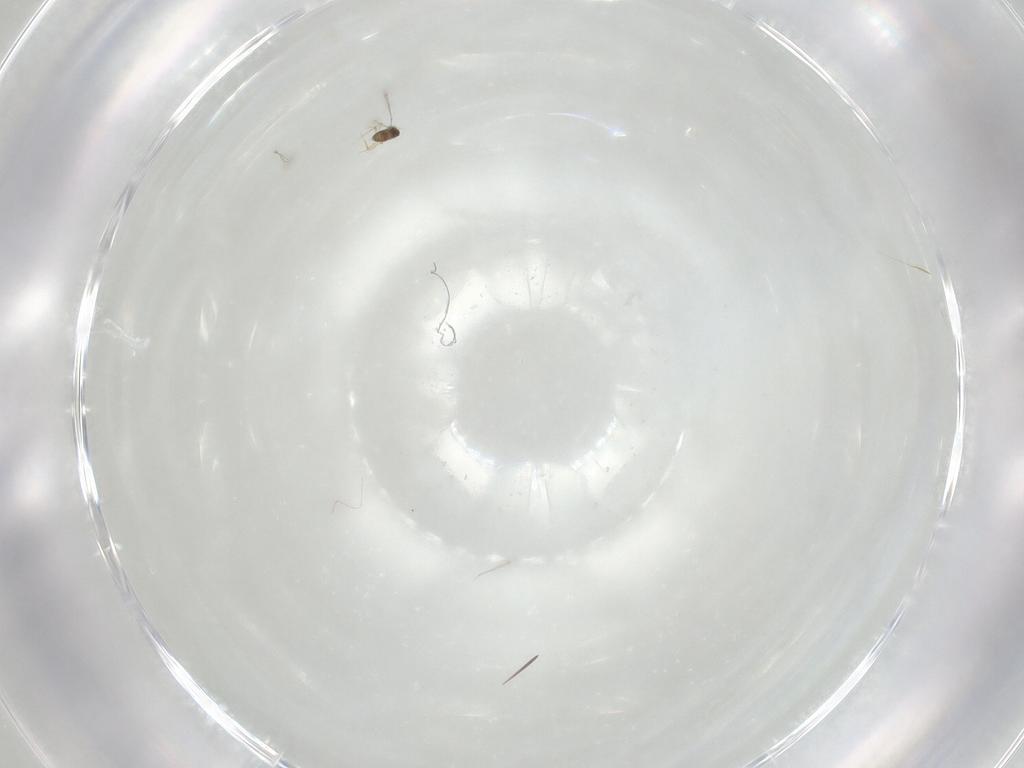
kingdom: Animalia
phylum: Arthropoda
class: Insecta
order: Hymenoptera
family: Mymaridae
